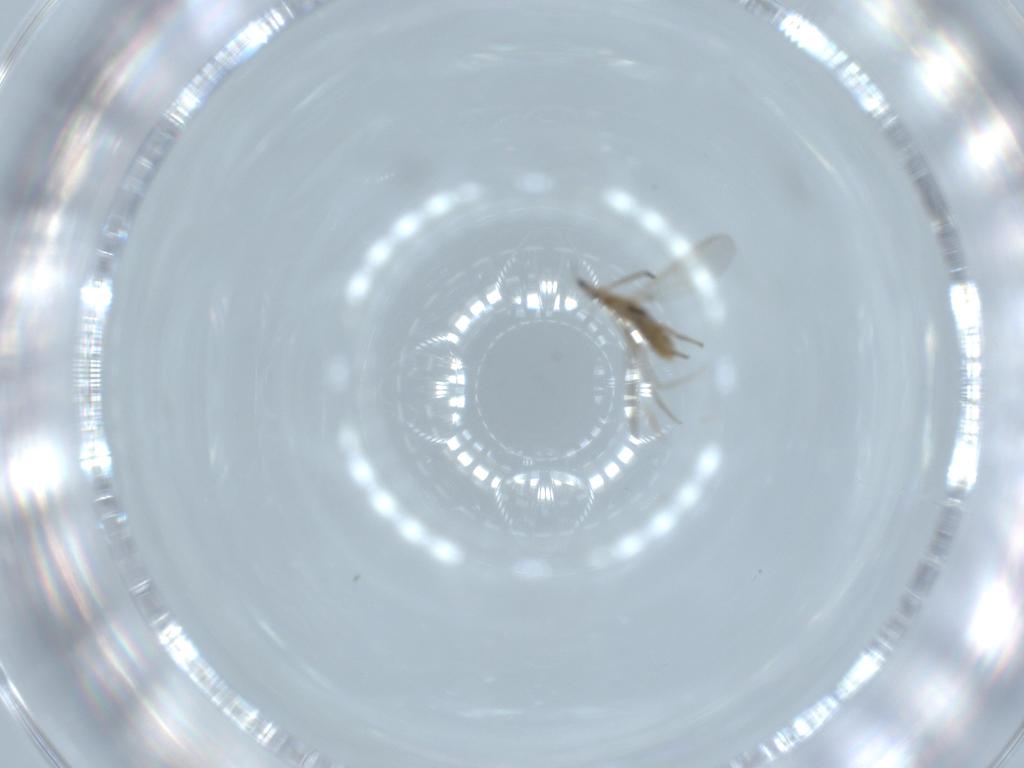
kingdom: Animalia
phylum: Arthropoda
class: Insecta
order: Diptera
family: Chironomidae
